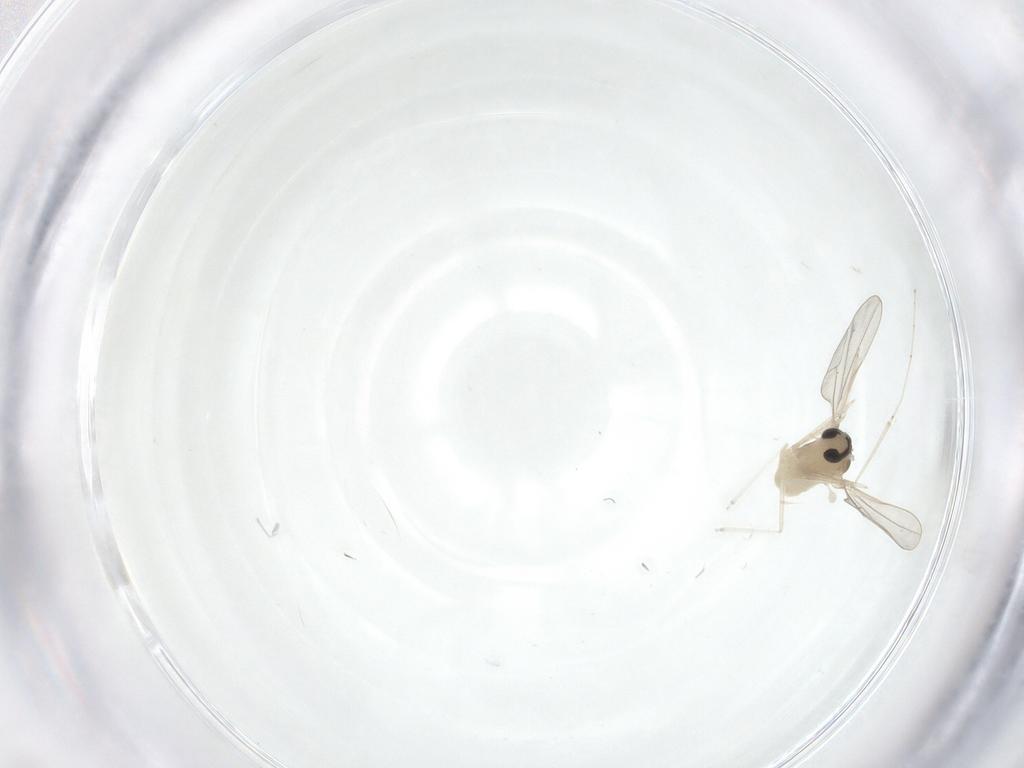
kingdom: Animalia
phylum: Arthropoda
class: Insecta
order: Diptera
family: Cecidomyiidae
